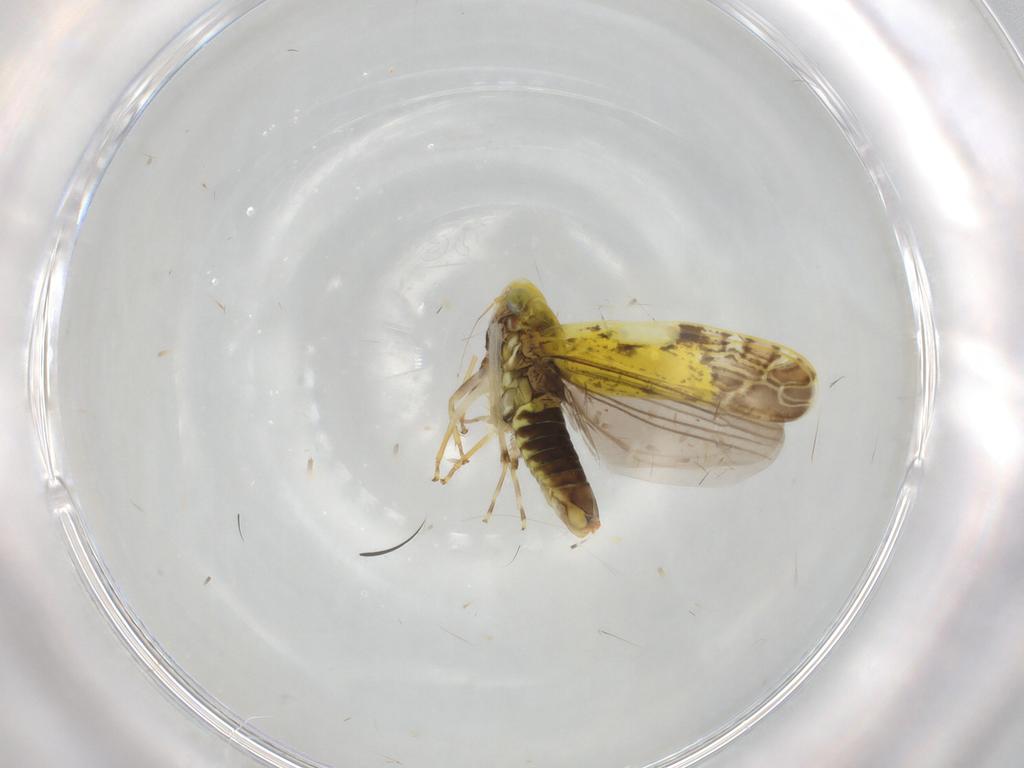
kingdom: Animalia
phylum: Arthropoda
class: Insecta
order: Hemiptera
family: Cicadellidae
